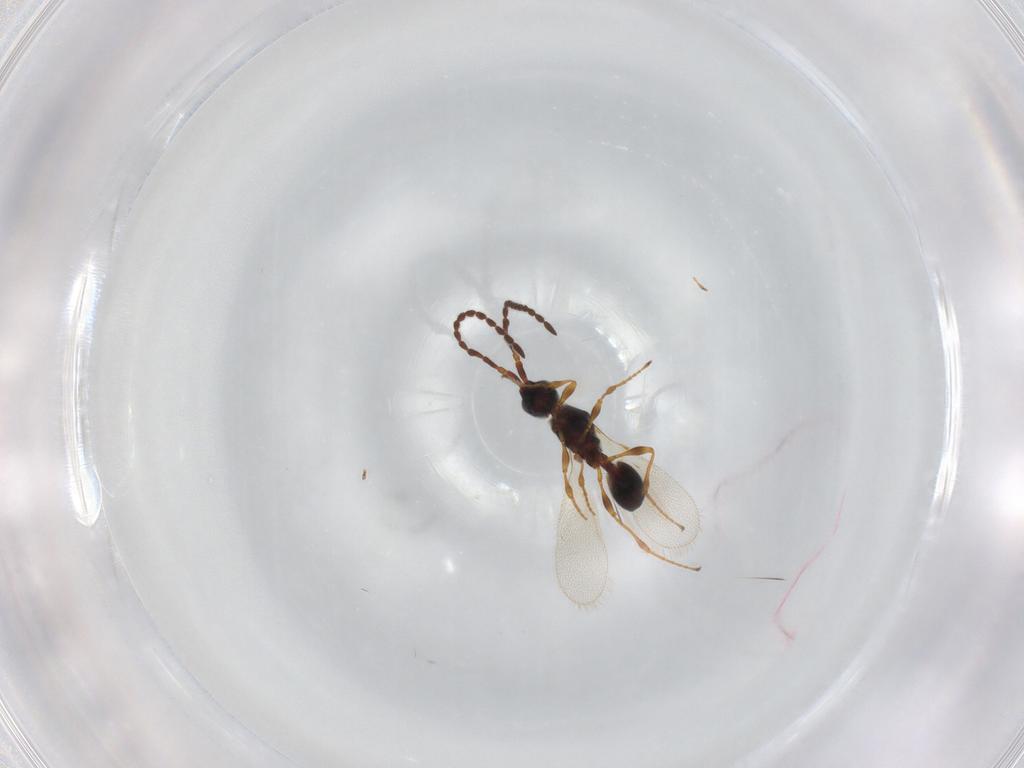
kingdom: Animalia
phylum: Arthropoda
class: Insecta
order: Hymenoptera
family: Diapriidae
